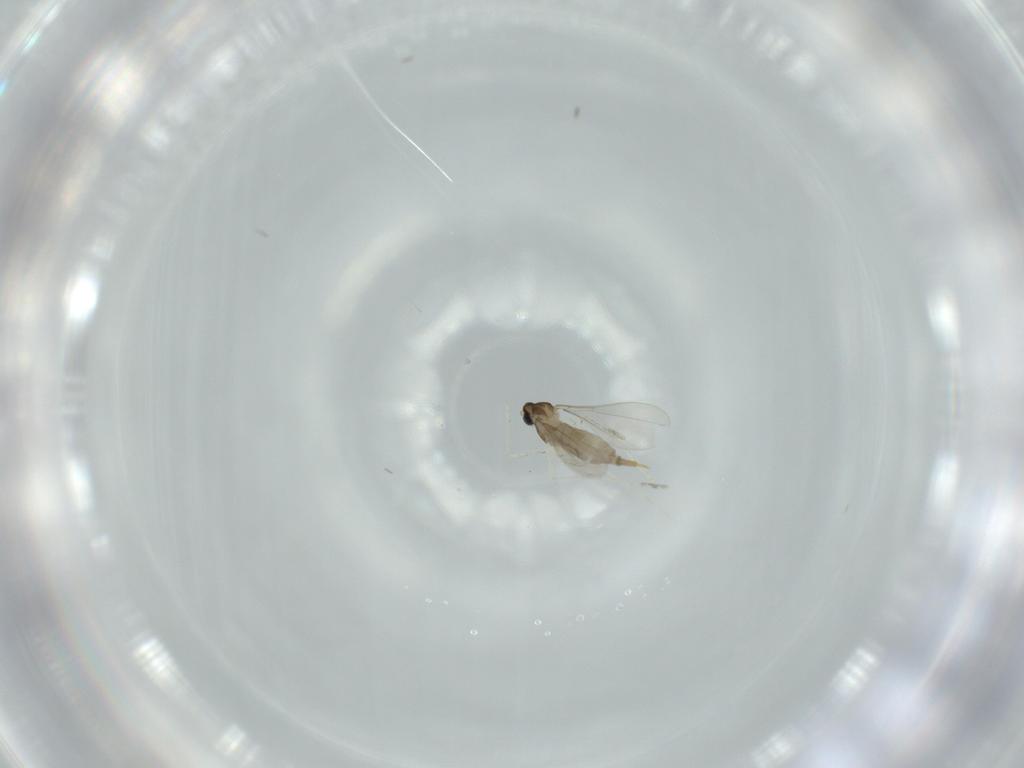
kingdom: Animalia
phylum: Arthropoda
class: Insecta
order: Diptera
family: Cecidomyiidae
